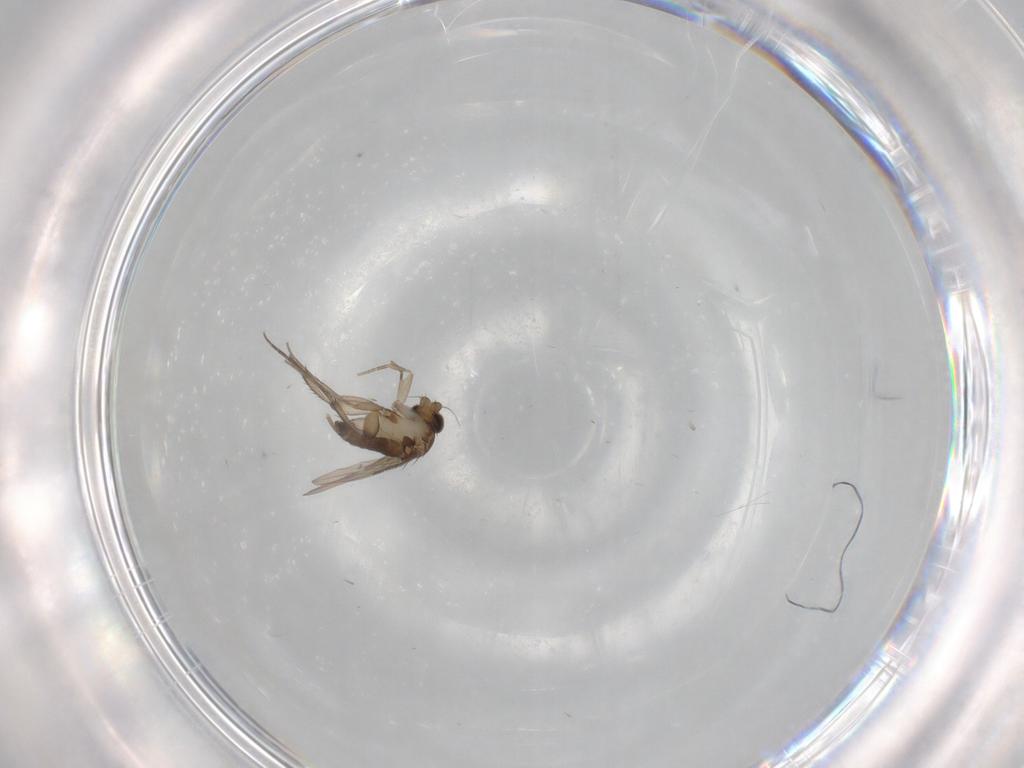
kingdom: Animalia
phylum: Arthropoda
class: Insecta
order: Diptera
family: Phoridae
